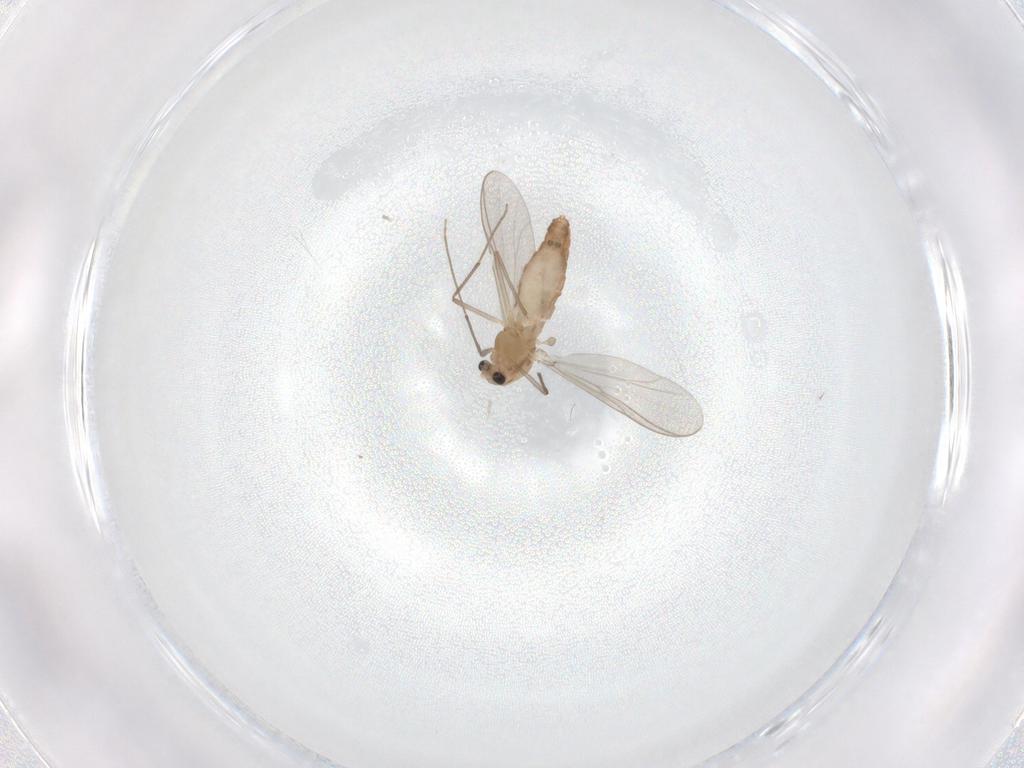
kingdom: Animalia
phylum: Arthropoda
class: Insecta
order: Diptera
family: Chironomidae
